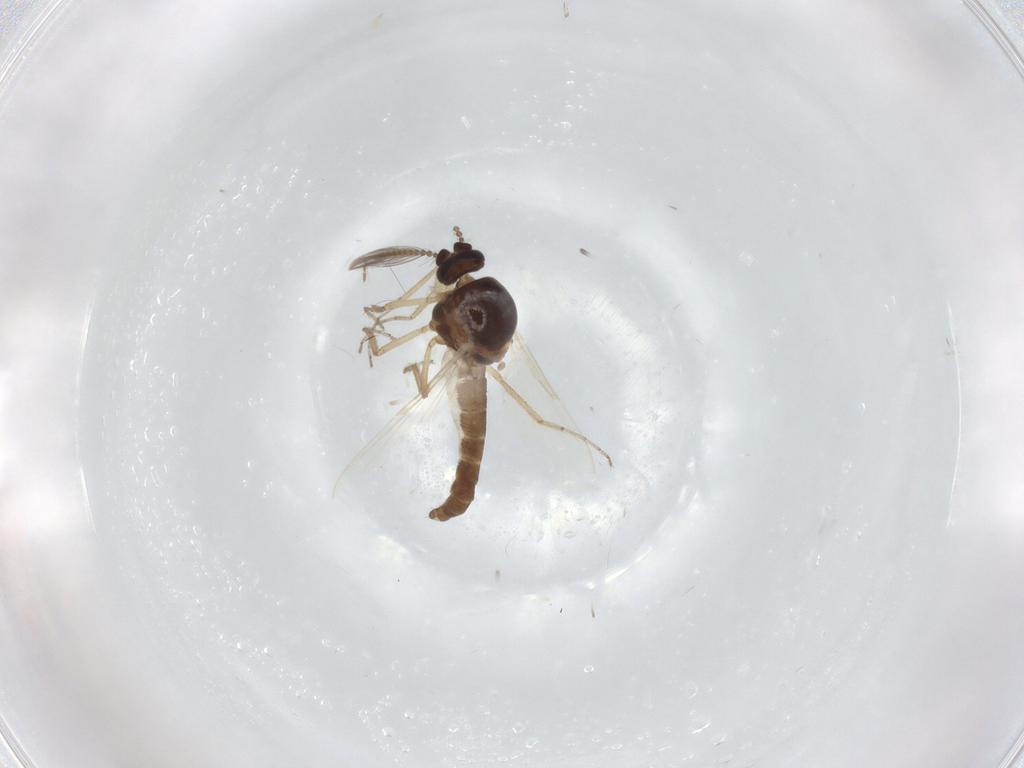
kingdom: Animalia
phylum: Arthropoda
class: Insecta
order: Diptera
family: Ceratopogonidae
